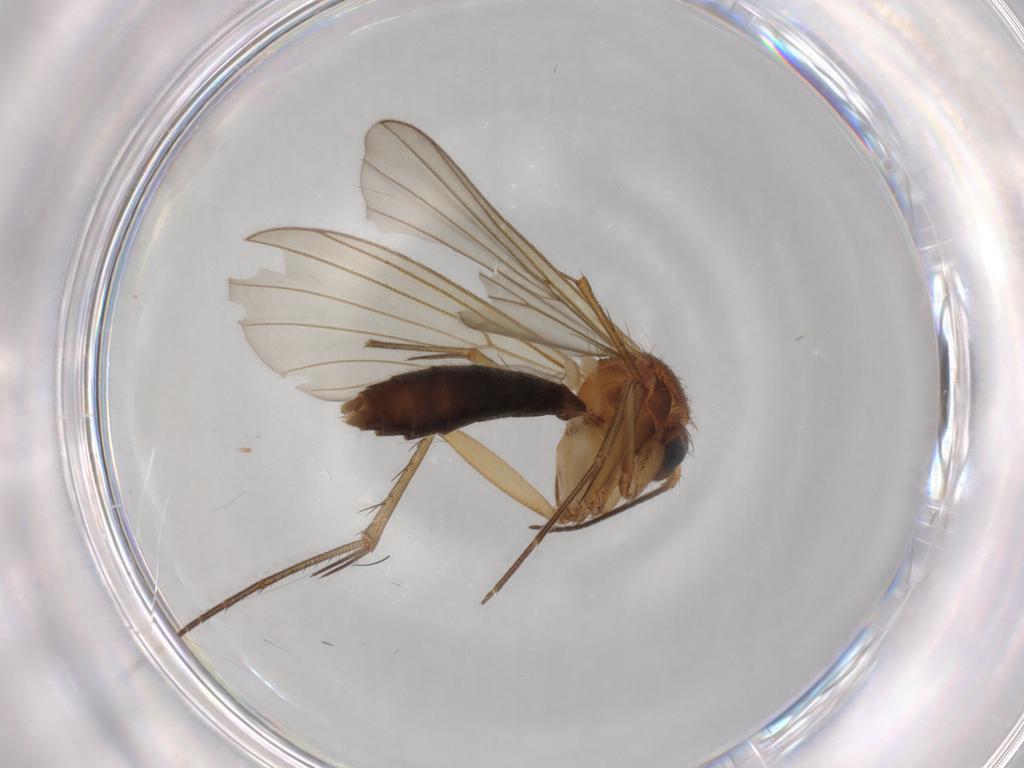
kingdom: Animalia
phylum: Arthropoda
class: Insecta
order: Diptera
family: Mycetophilidae
